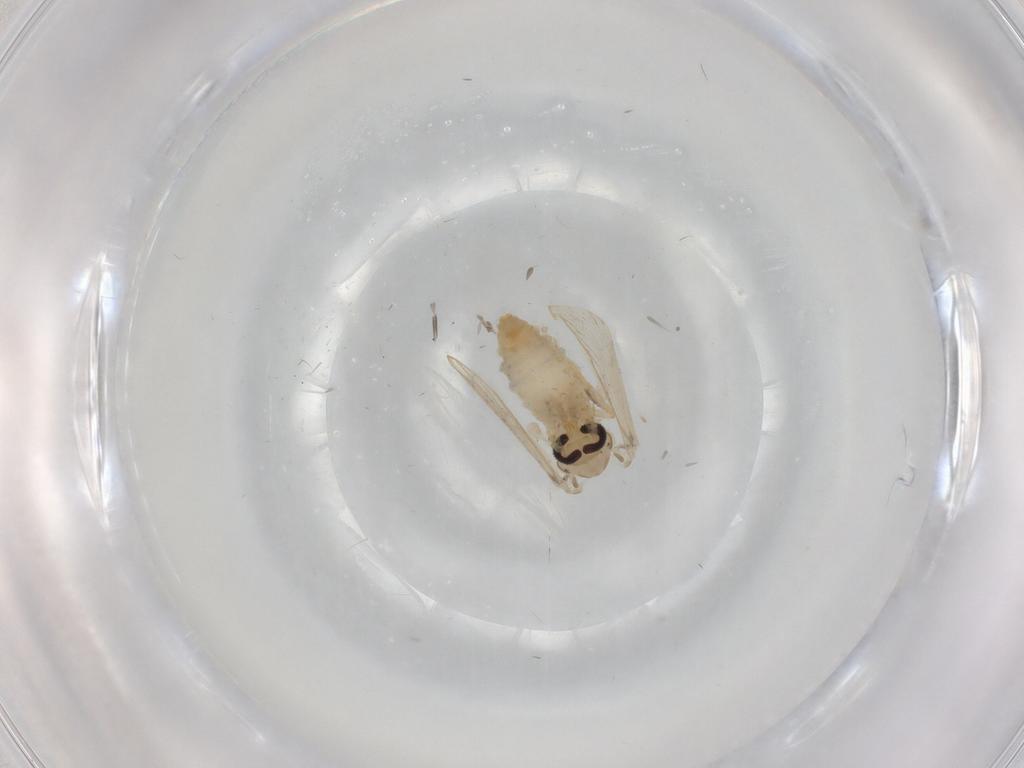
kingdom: Animalia
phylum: Arthropoda
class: Insecta
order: Diptera
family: Psychodidae
